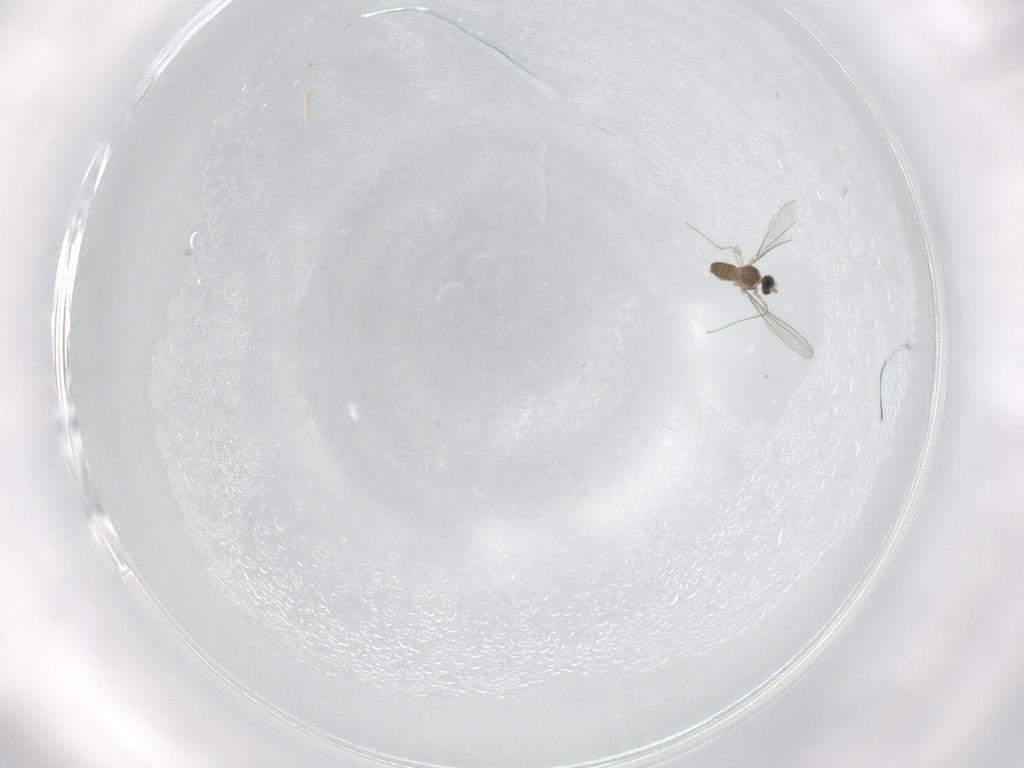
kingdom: Animalia
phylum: Arthropoda
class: Insecta
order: Diptera
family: Cecidomyiidae
